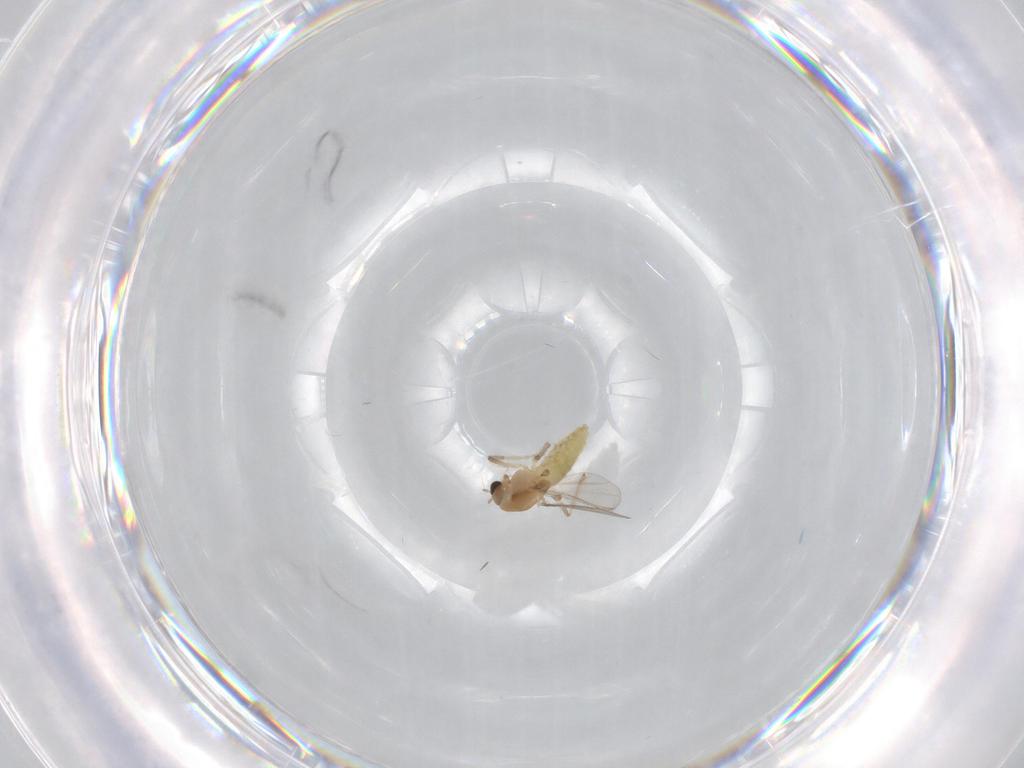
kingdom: Animalia
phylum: Arthropoda
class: Insecta
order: Diptera
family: Chironomidae
